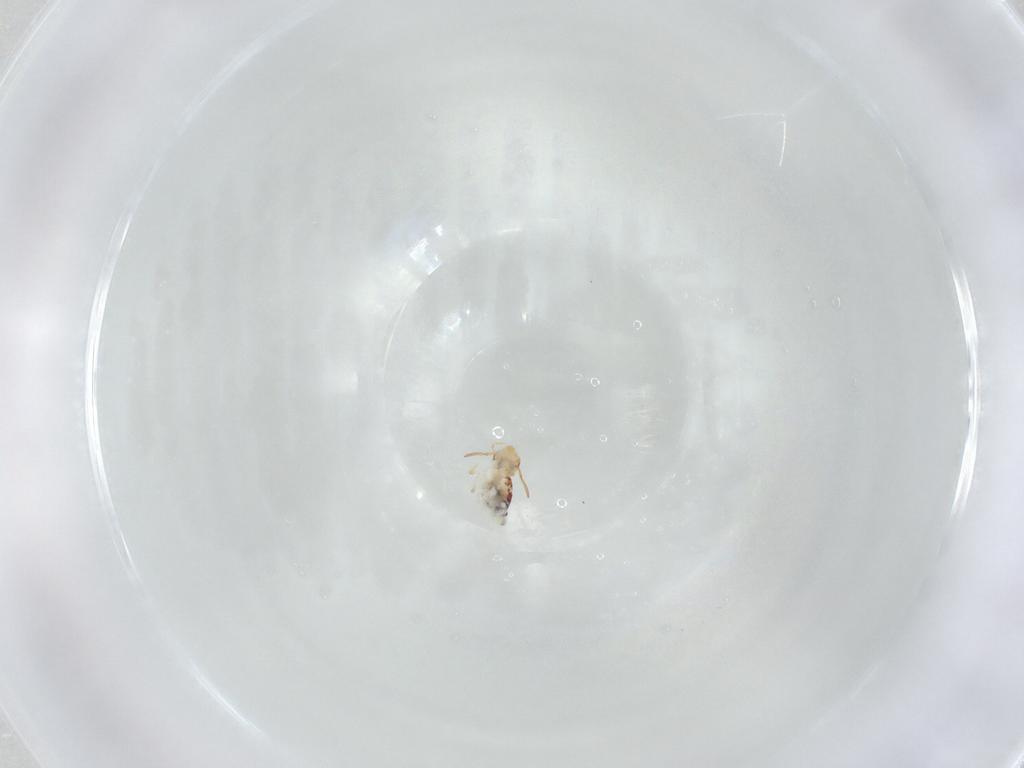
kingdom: Animalia
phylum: Arthropoda
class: Collembola
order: Symphypleona
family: Bourletiellidae
